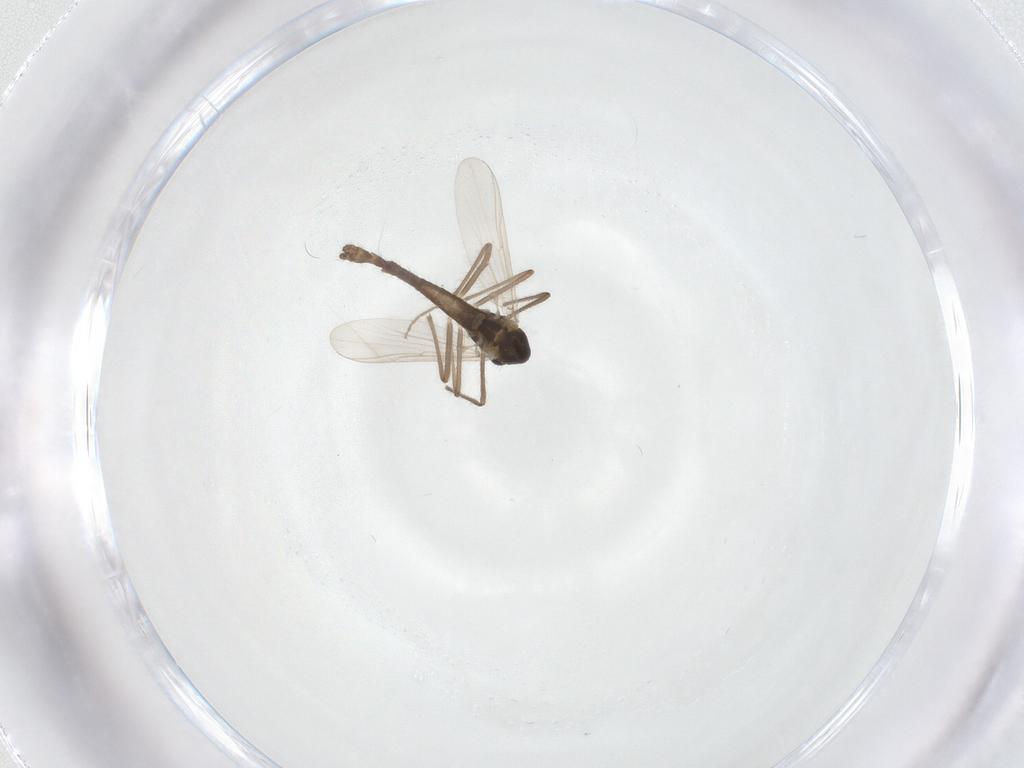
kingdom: Animalia
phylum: Arthropoda
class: Insecta
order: Diptera
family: Chironomidae
